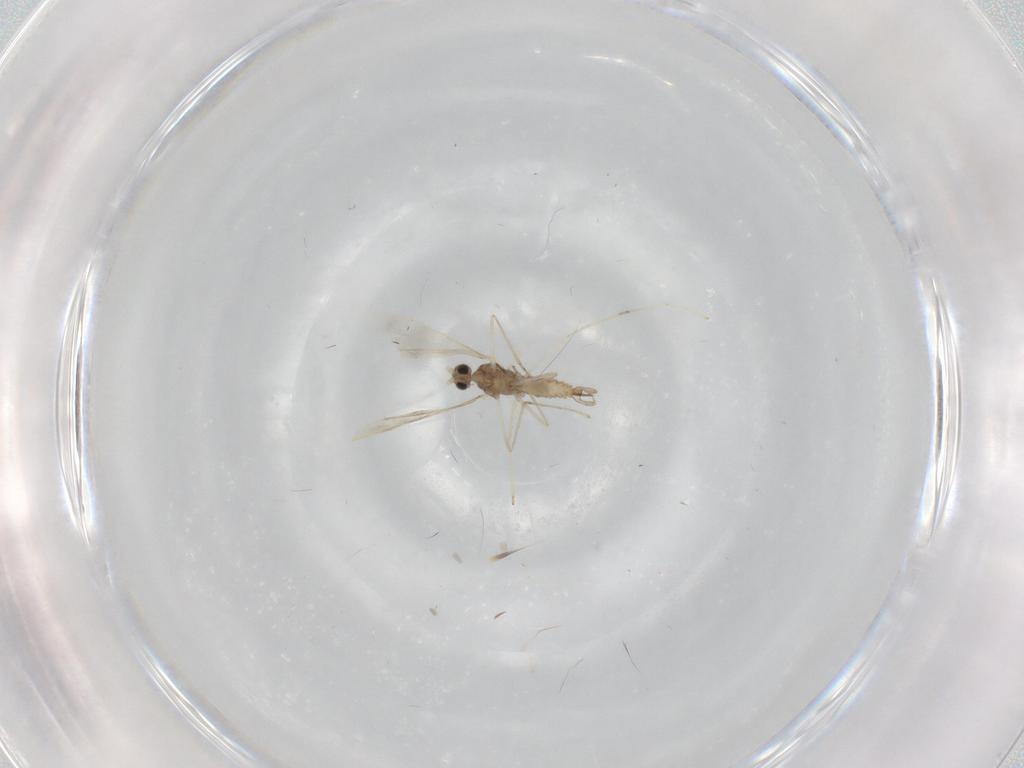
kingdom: Animalia
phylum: Arthropoda
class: Insecta
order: Diptera
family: Cecidomyiidae
